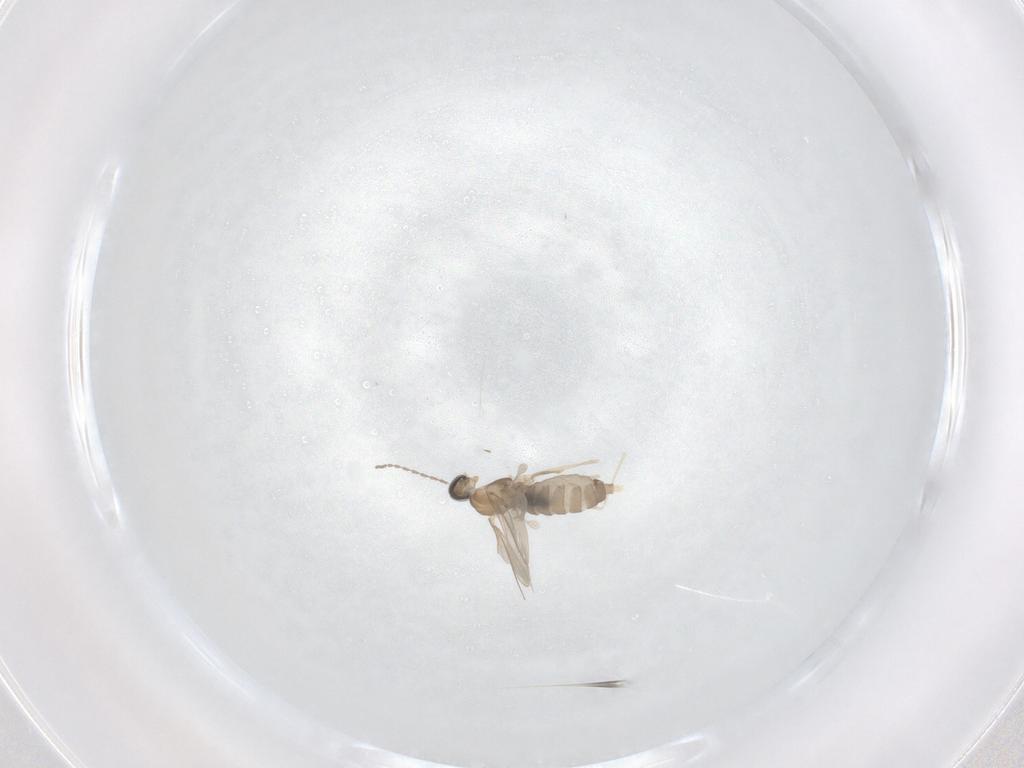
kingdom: Animalia
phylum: Arthropoda
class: Insecta
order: Diptera
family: Cecidomyiidae
